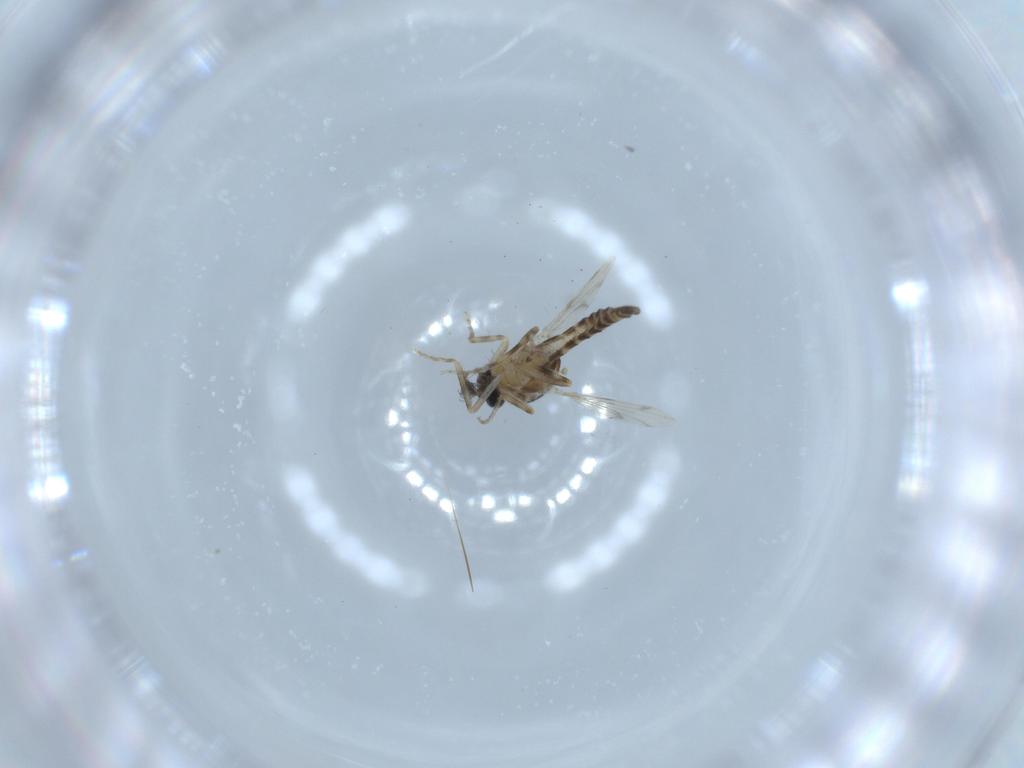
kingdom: Animalia
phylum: Arthropoda
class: Insecta
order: Diptera
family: Ceratopogonidae
